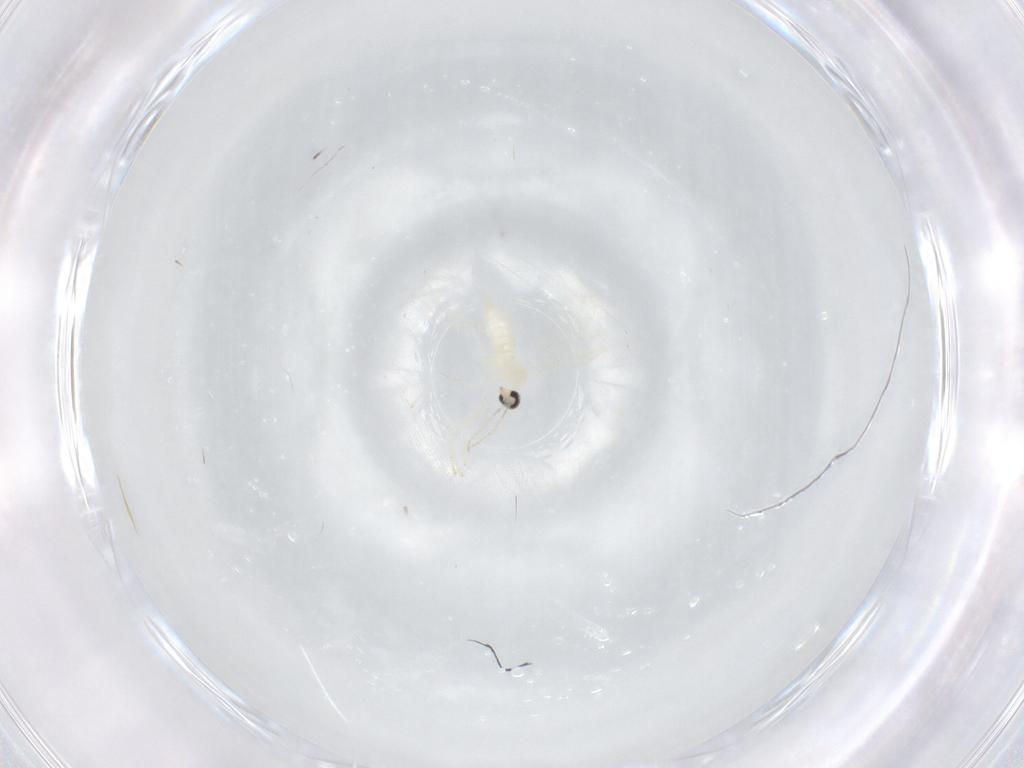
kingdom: Animalia
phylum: Arthropoda
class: Insecta
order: Diptera
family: Cecidomyiidae
